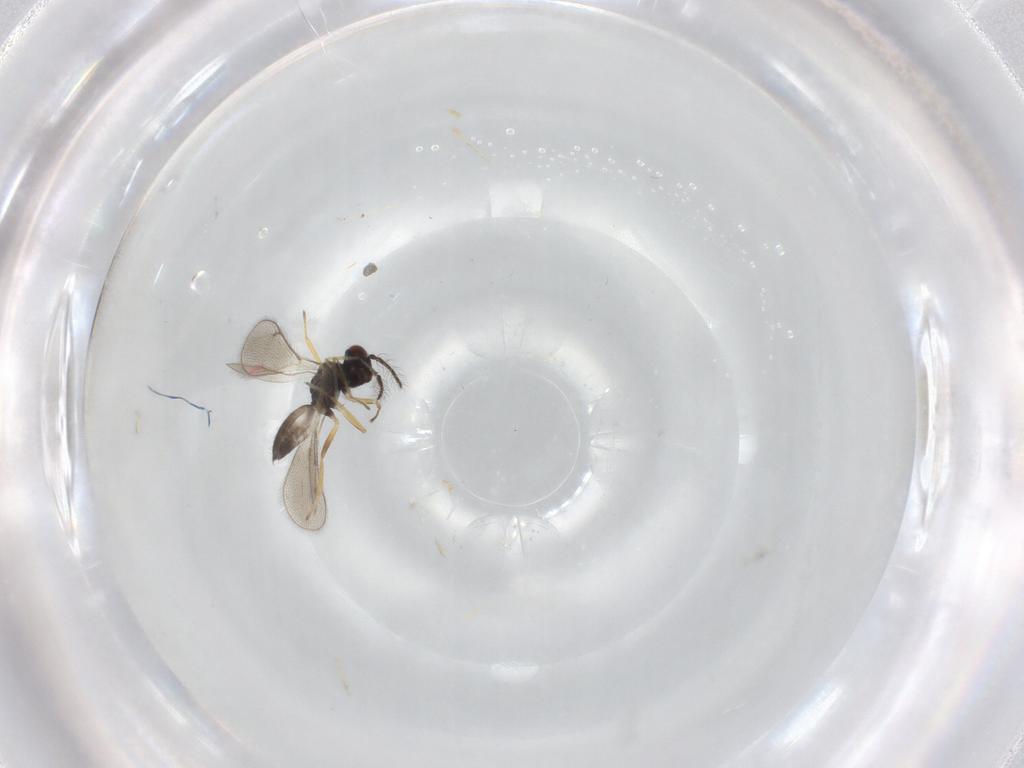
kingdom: Animalia
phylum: Arthropoda
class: Insecta
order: Hymenoptera
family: Eulophidae
